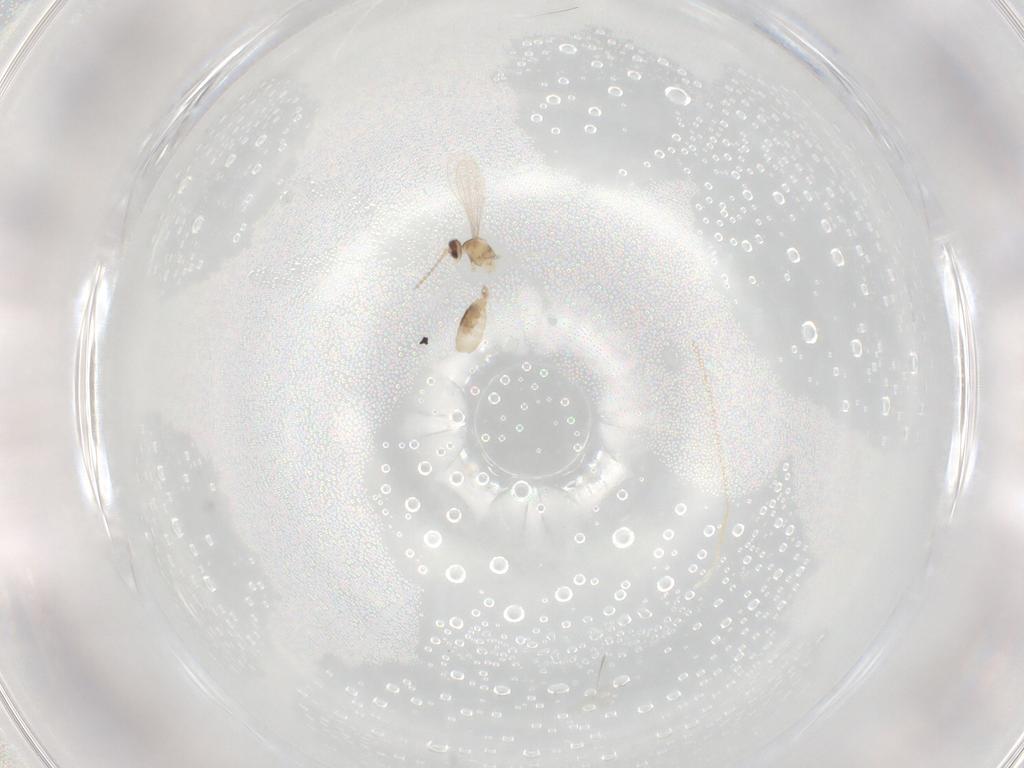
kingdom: Animalia
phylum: Arthropoda
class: Insecta
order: Diptera
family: Cecidomyiidae
